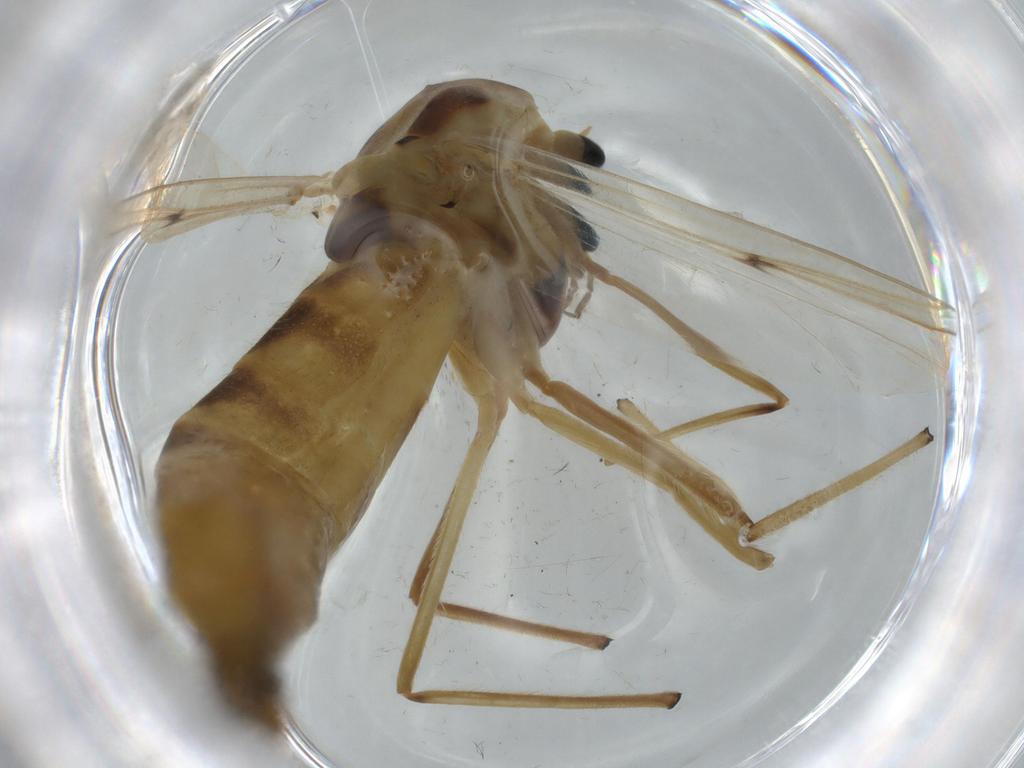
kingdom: Animalia
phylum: Arthropoda
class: Insecta
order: Diptera
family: Chironomidae
